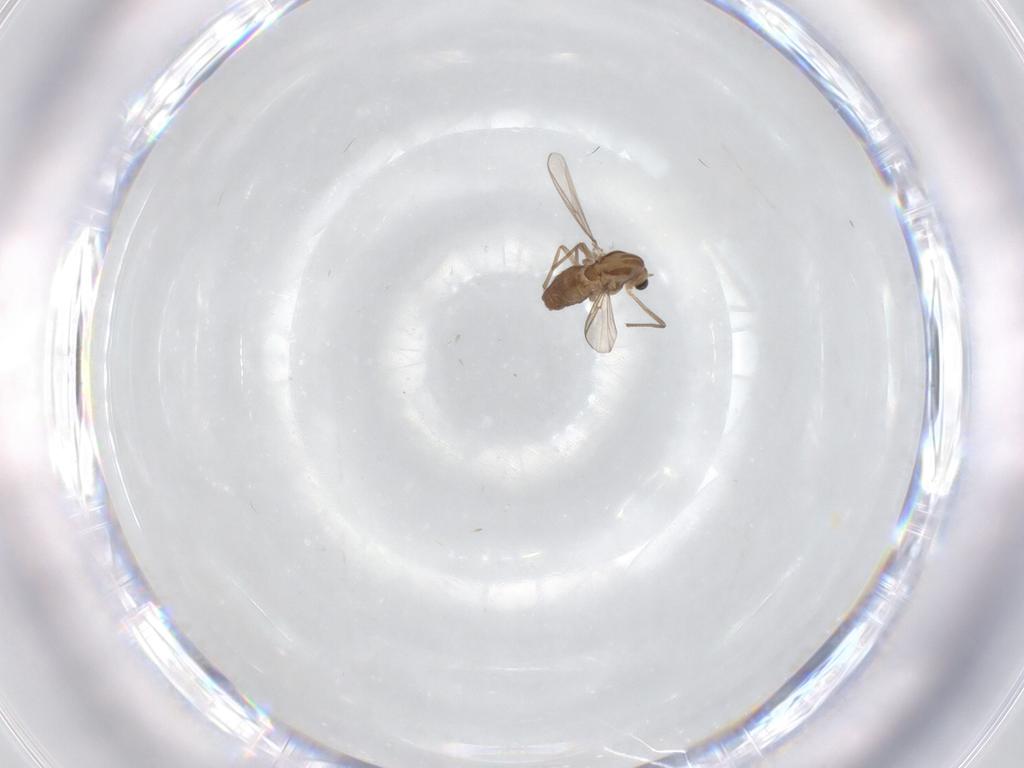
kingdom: Animalia
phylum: Arthropoda
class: Insecta
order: Diptera
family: Chironomidae
